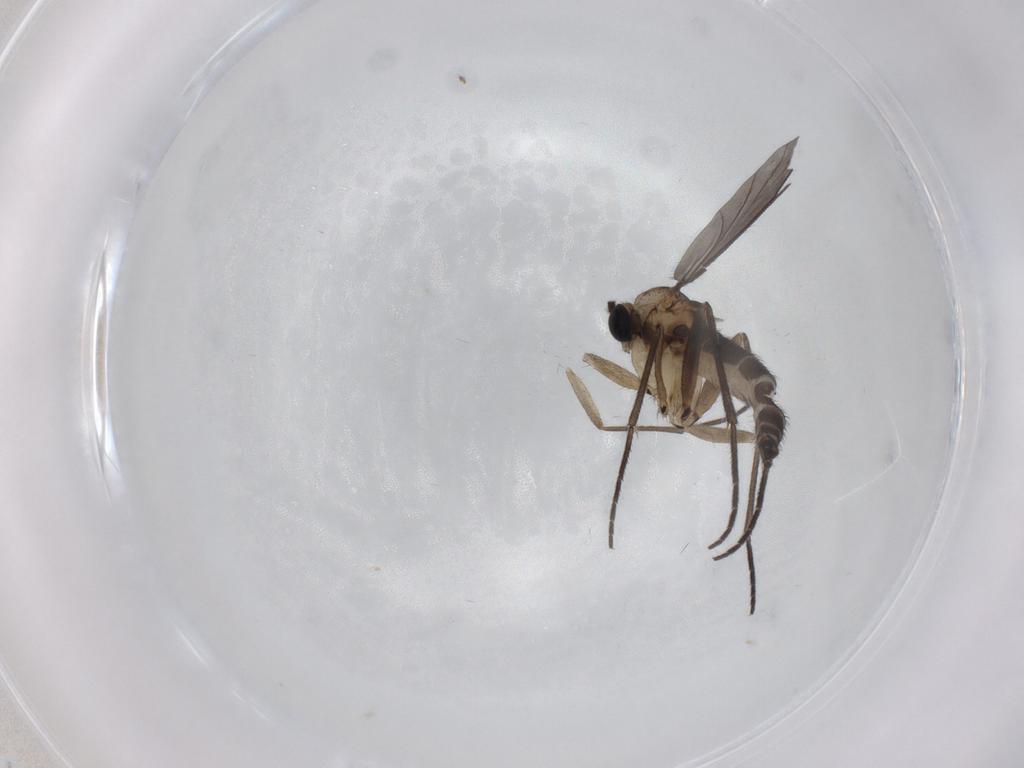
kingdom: Animalia
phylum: Arthropoda
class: Insecta
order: Diptera
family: Sciaridae
